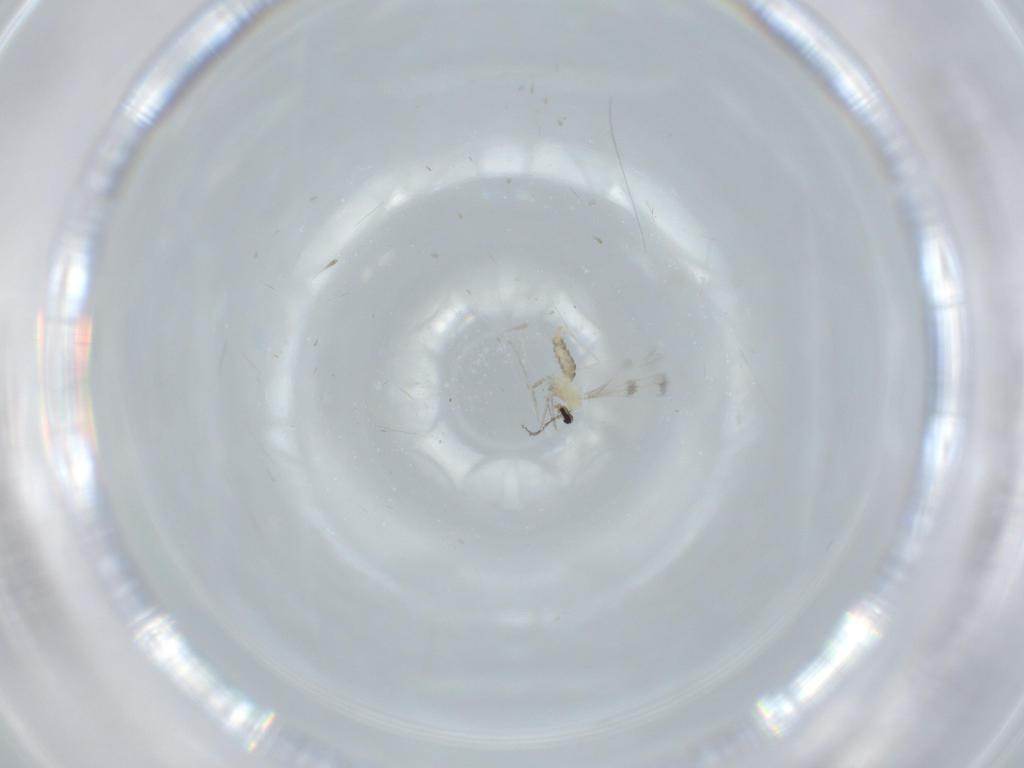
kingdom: Animalia
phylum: Arthropoda
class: Insecta
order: Diptera
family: Cecidomyiidae
